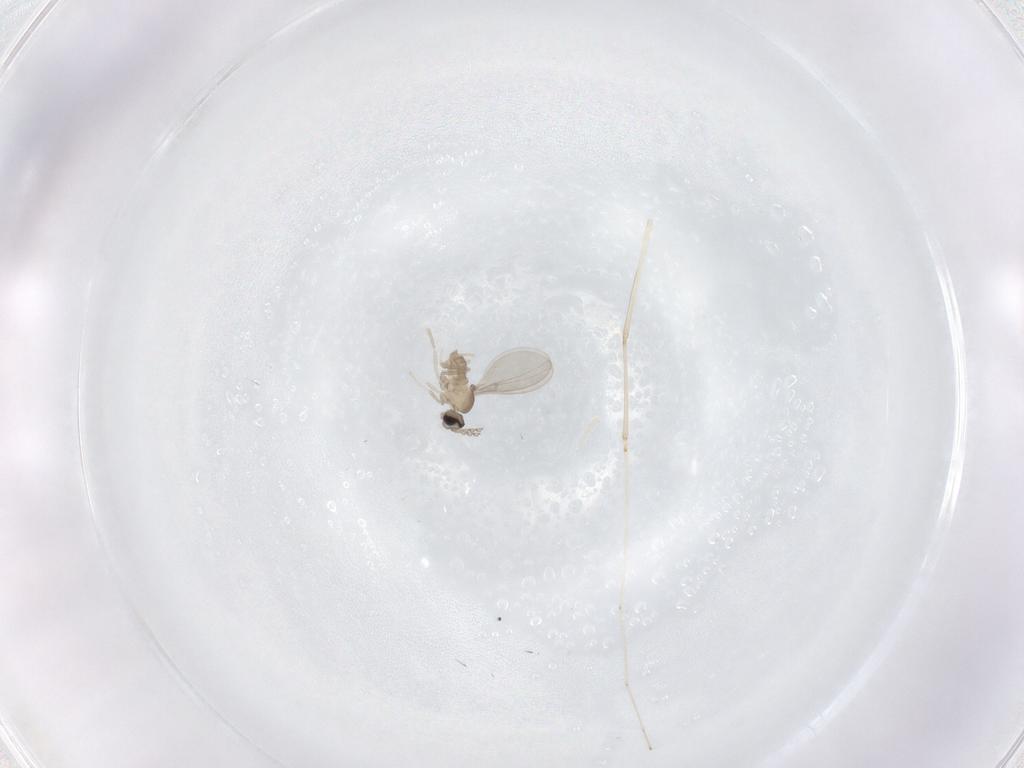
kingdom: Animalia
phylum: Arthropoda
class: Insecta
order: Diptera
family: Cecidomyiidae
